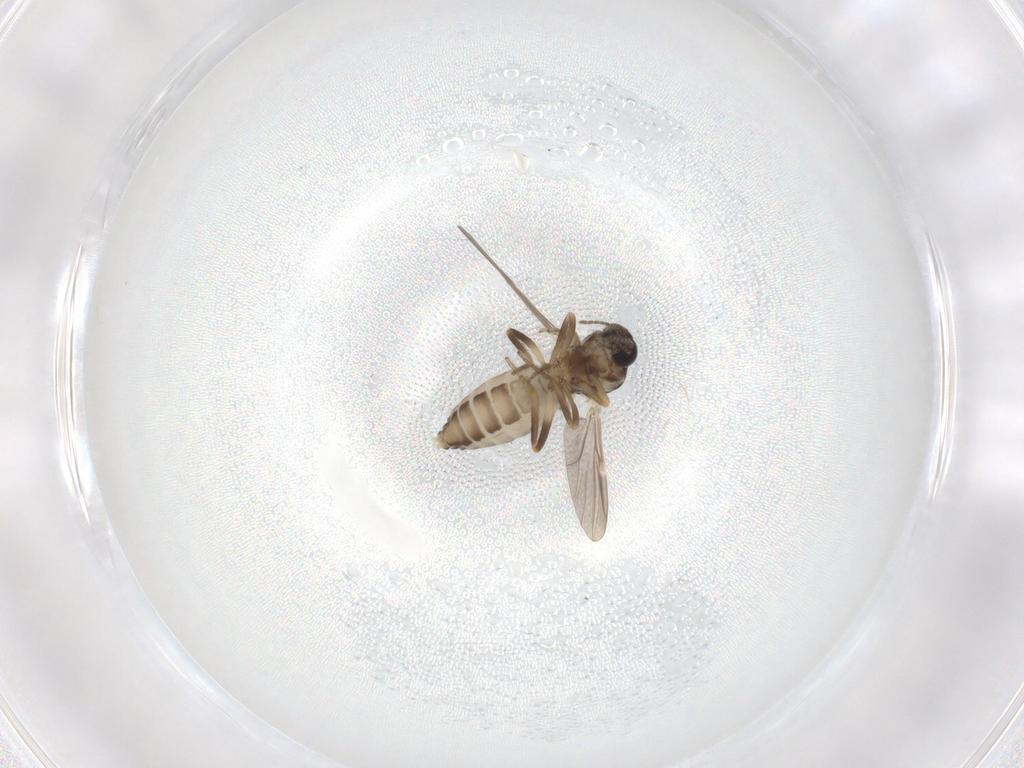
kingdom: Animalia
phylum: Arthropoda
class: Insecta
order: Diptera
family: Ceratopogonidae
